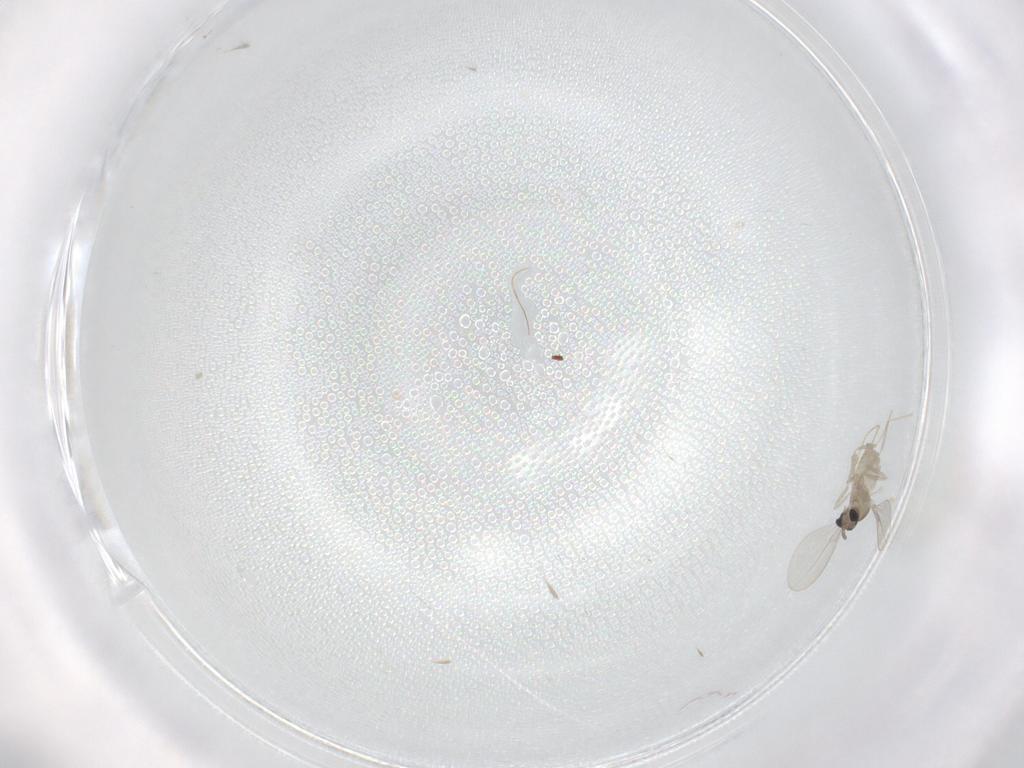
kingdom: Animalia
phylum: Arthropoda
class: Insecta
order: Diptera
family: Cecidomyiidae
